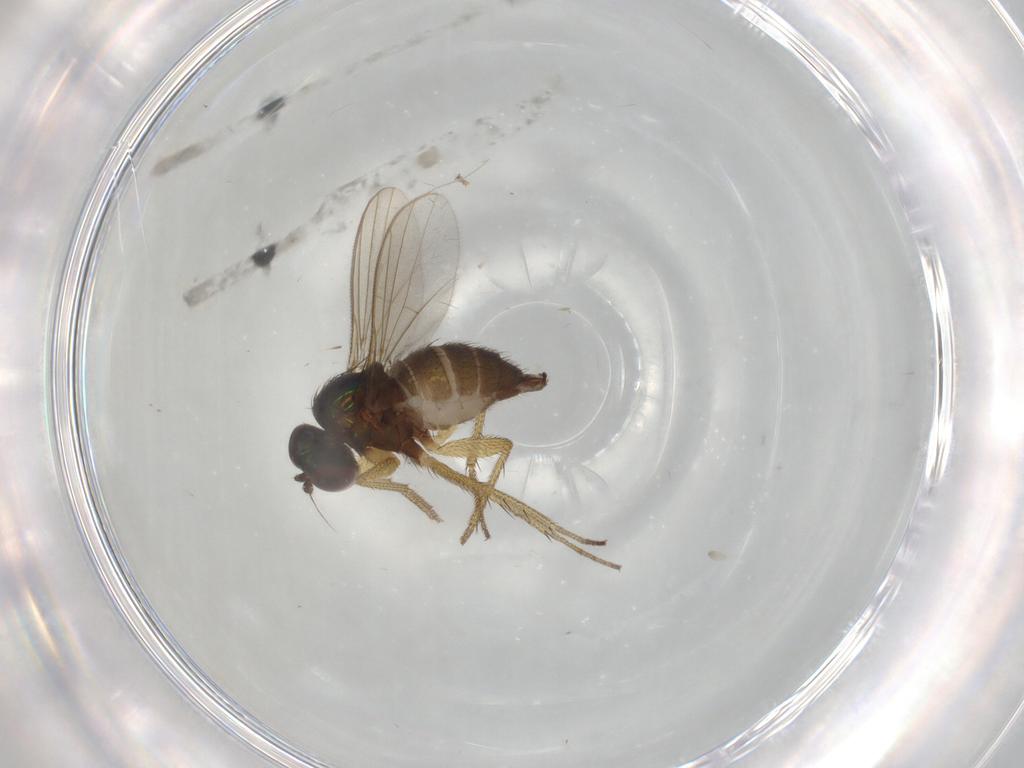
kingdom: Animalia
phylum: Arthropoda
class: Insecta
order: Diptera
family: Dolichopodidae
